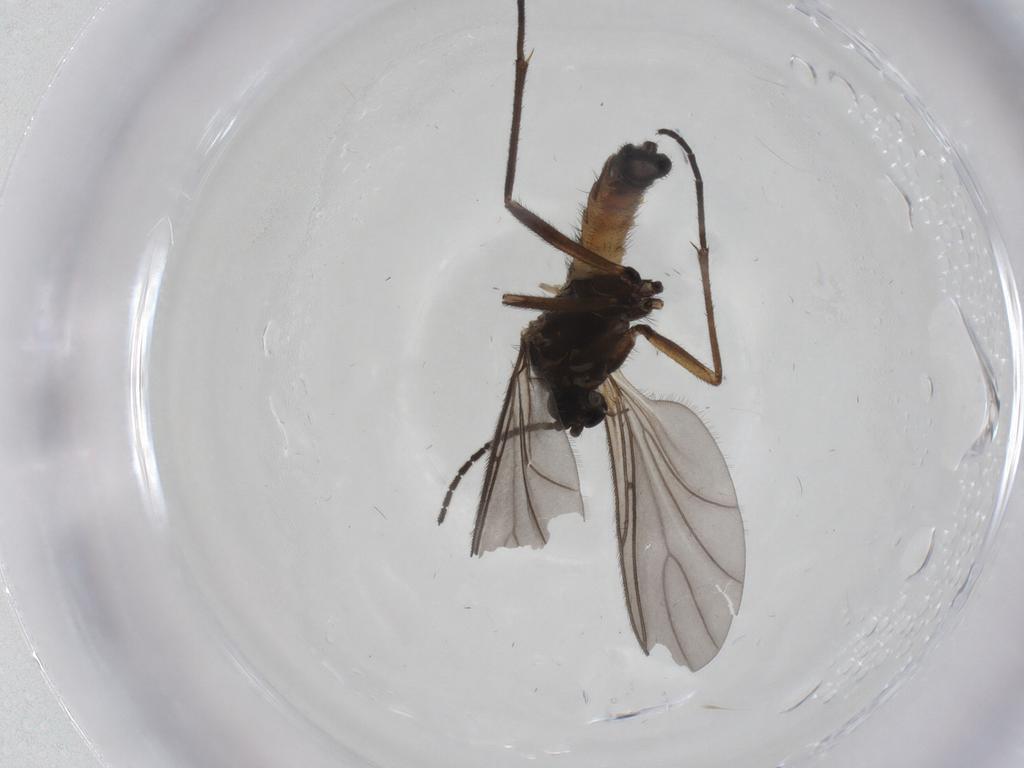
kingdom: Animalia
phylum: Arthropoda
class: Insecta
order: Diptera
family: Sciaridae
